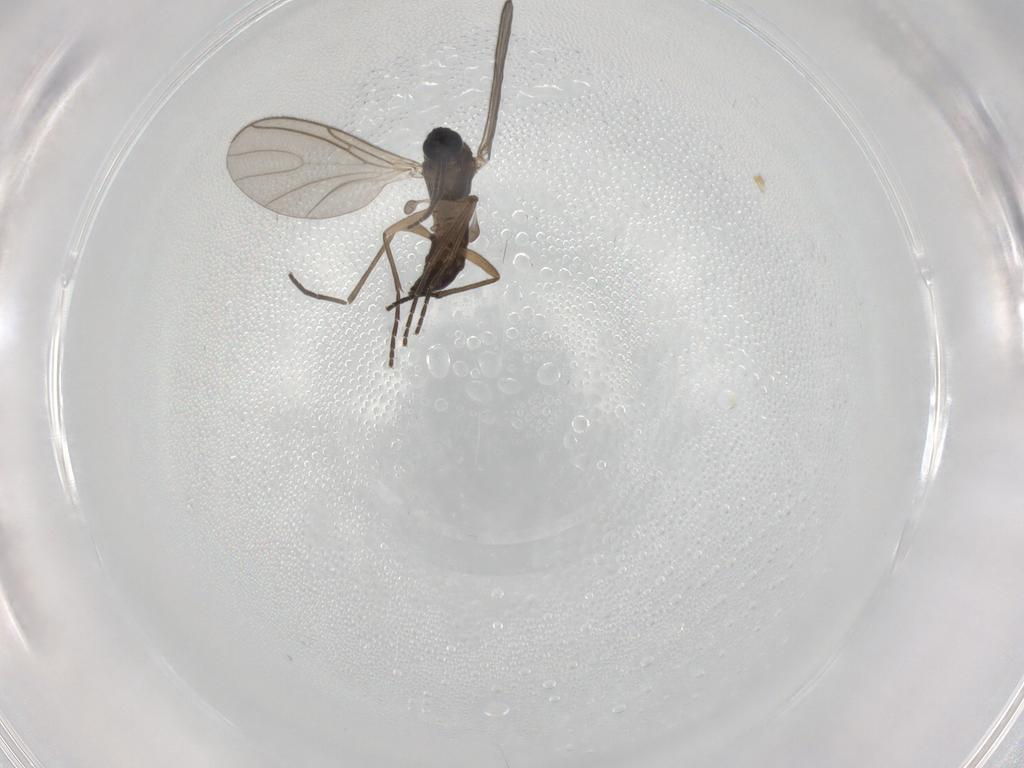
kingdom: Animalia
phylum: Arthropoda
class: Insecta
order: Diptera
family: Sciaridae
